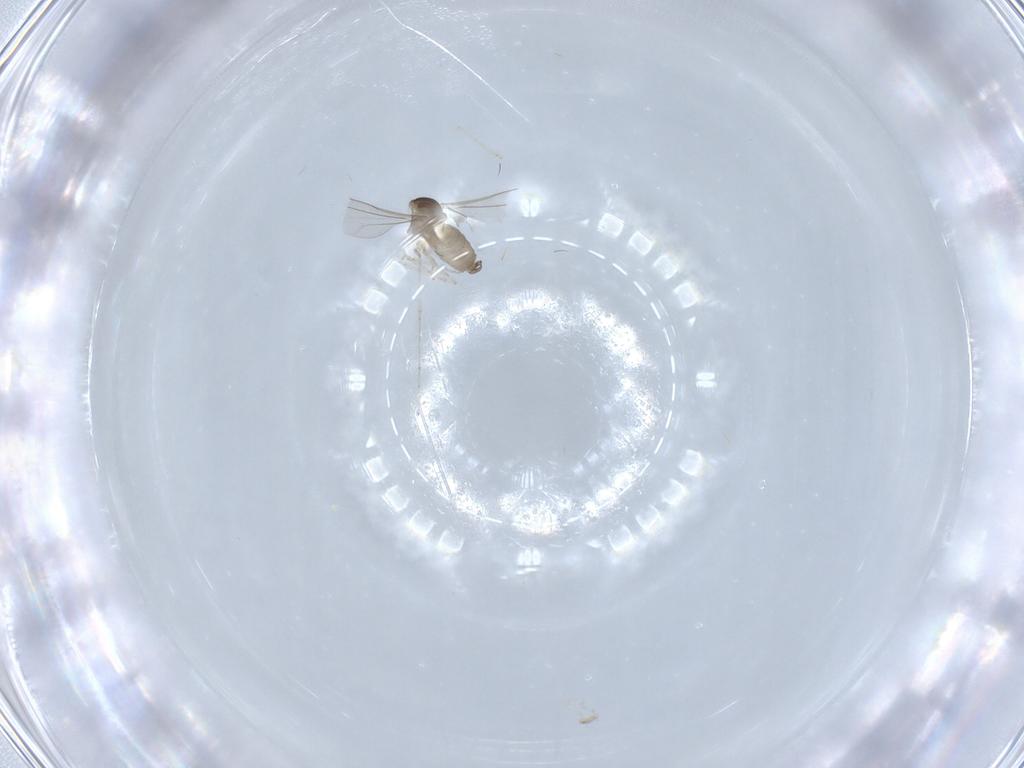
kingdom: Animalia
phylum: Arthropoda
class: Insecta
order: Diptera
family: Cecidomyiidae
